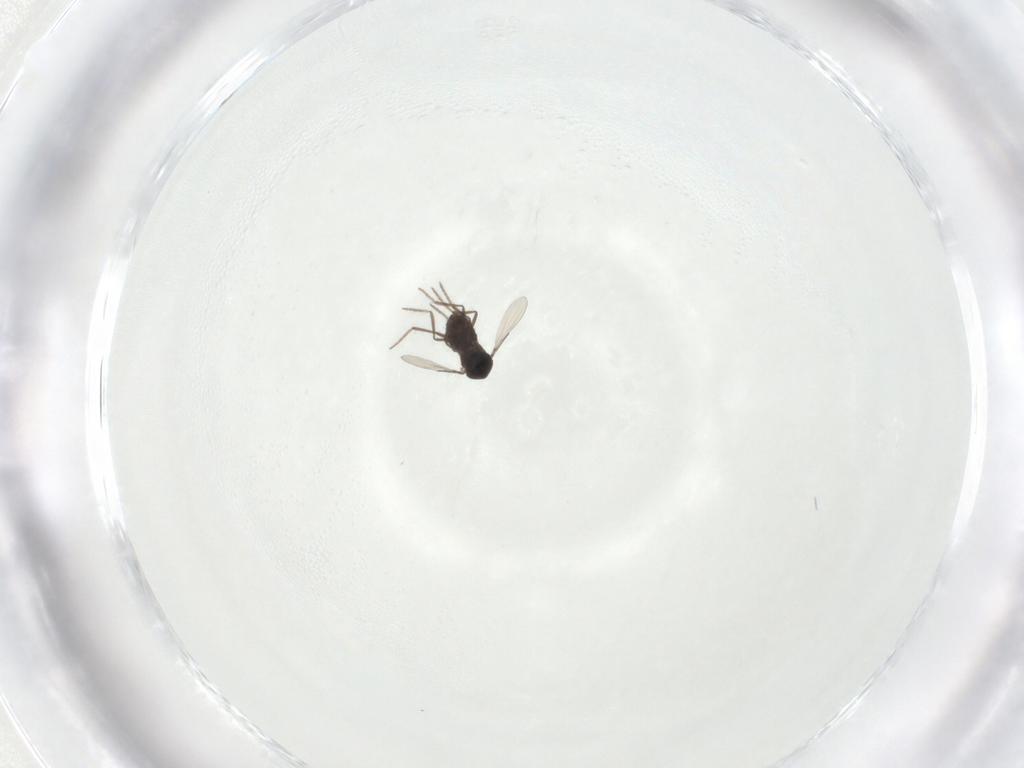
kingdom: Animalia
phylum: Arthropoda
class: Insecta
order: Diptera
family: Ceratopogonidae
